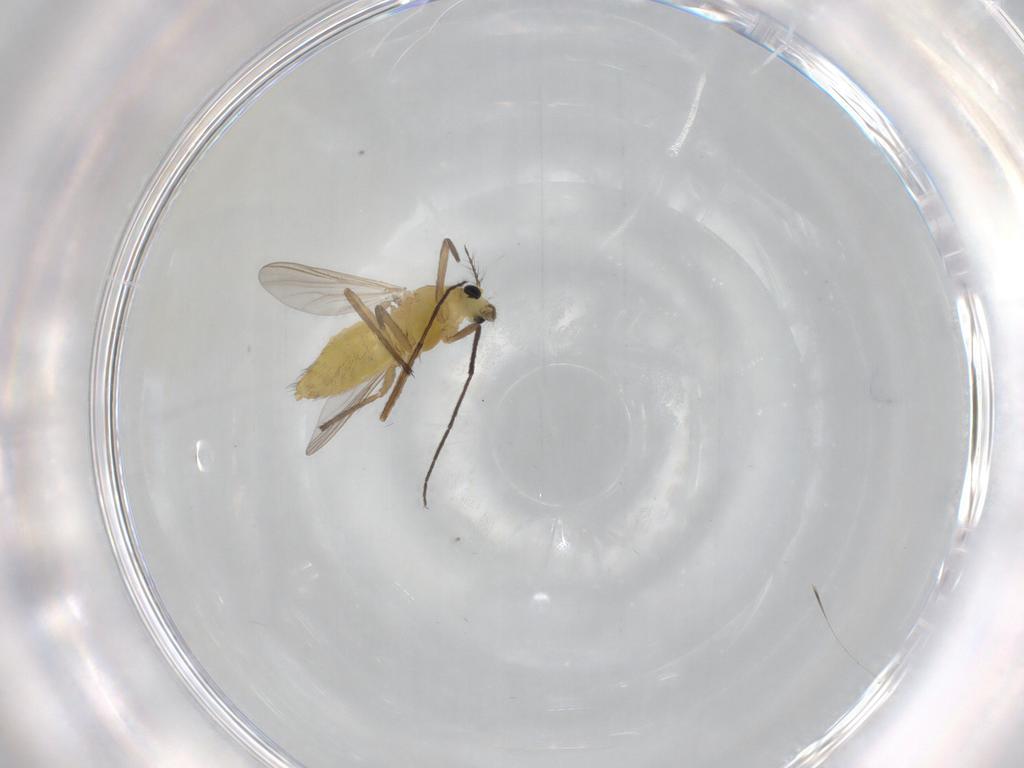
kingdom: Animalia
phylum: Arthropoda
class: Insecta
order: Diptera
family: Chironomidae
